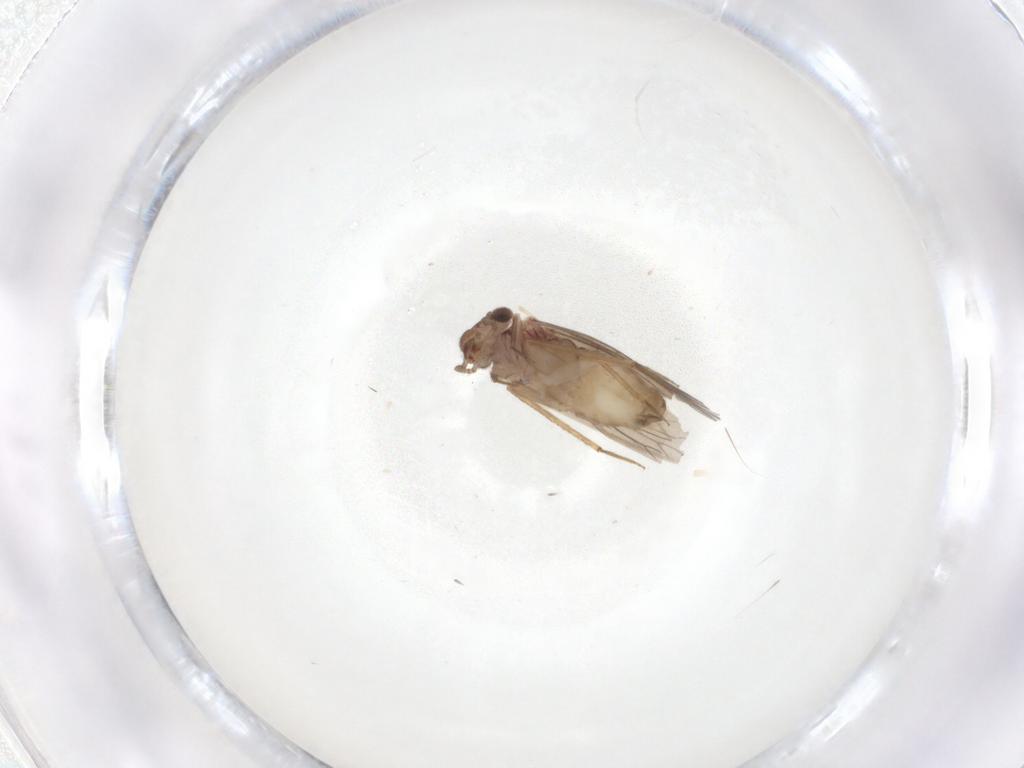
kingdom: Animalia
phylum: Arthropoda
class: Insecta
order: Psocodea
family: Lepidopsocidae
